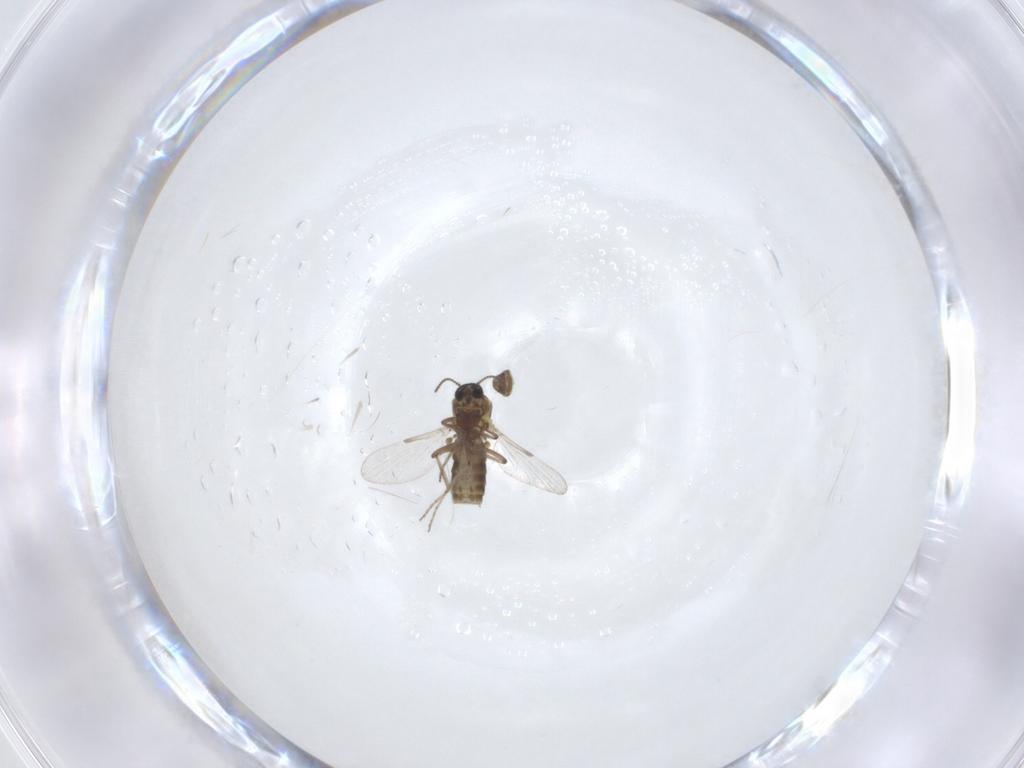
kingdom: Animalia
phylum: Arthropoda
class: Insecta
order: Diptera
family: Ceratopogonidae
